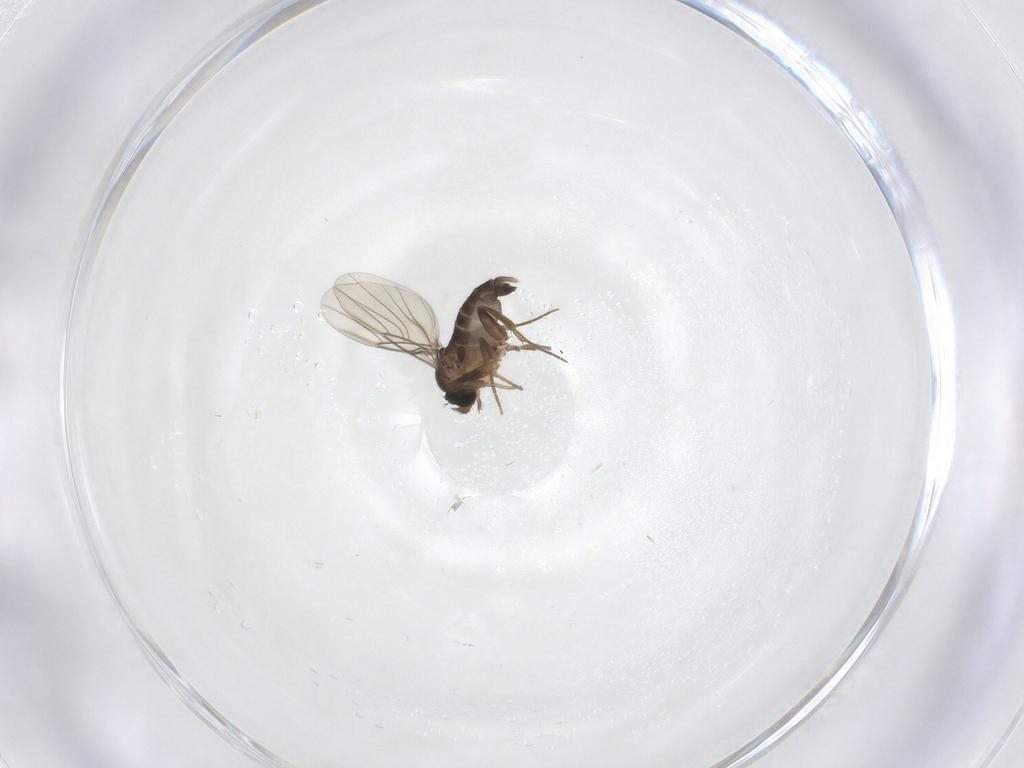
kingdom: Animalia
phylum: Arthropoda
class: Insecta
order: Diptera
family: Phoridae
